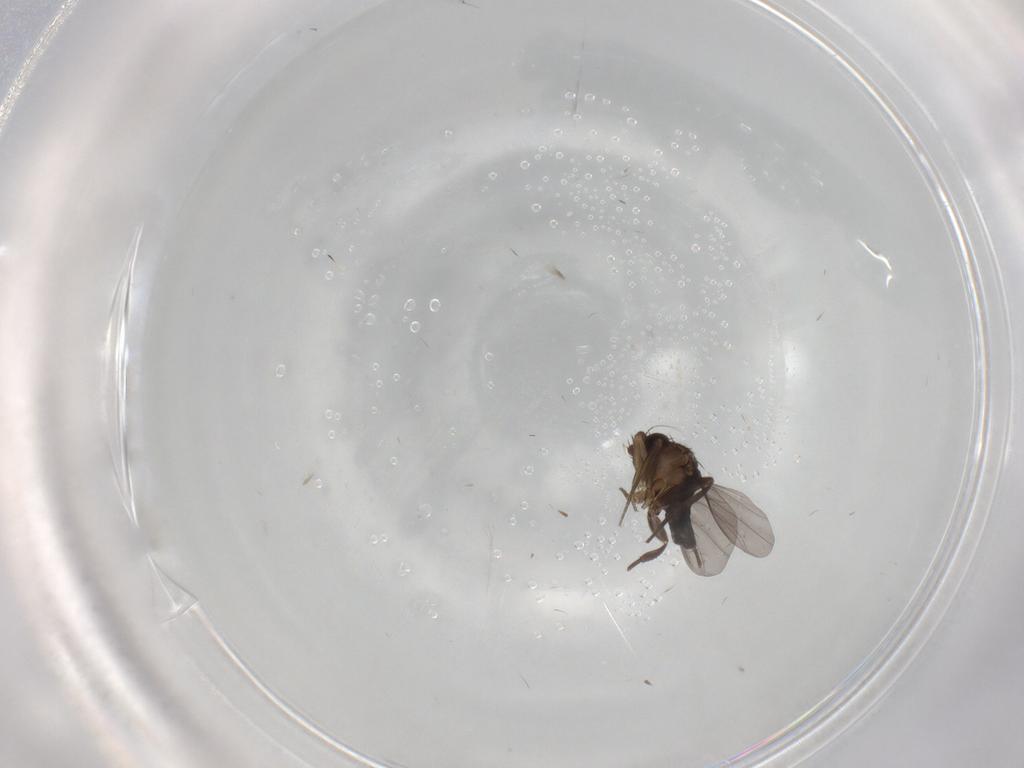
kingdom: Animalia
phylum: Arthropoda
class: Insecta
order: Diptera
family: Phoridae
